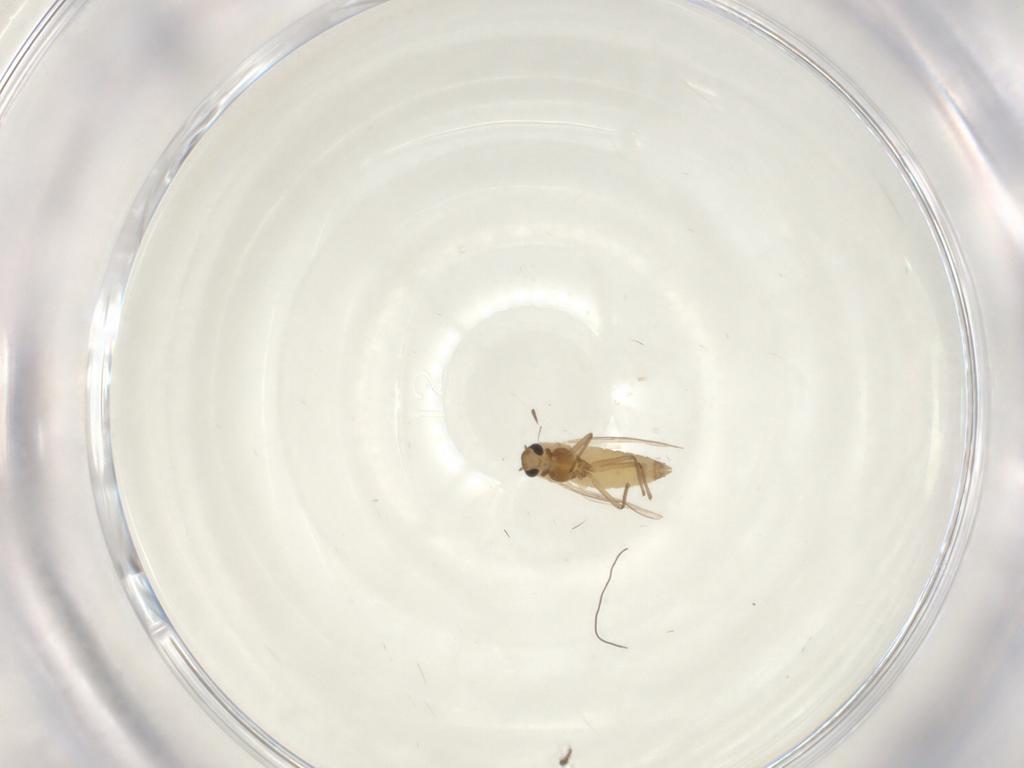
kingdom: Animalia
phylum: Arthropoda
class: Insecta
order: Diptera
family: Chironomidae
